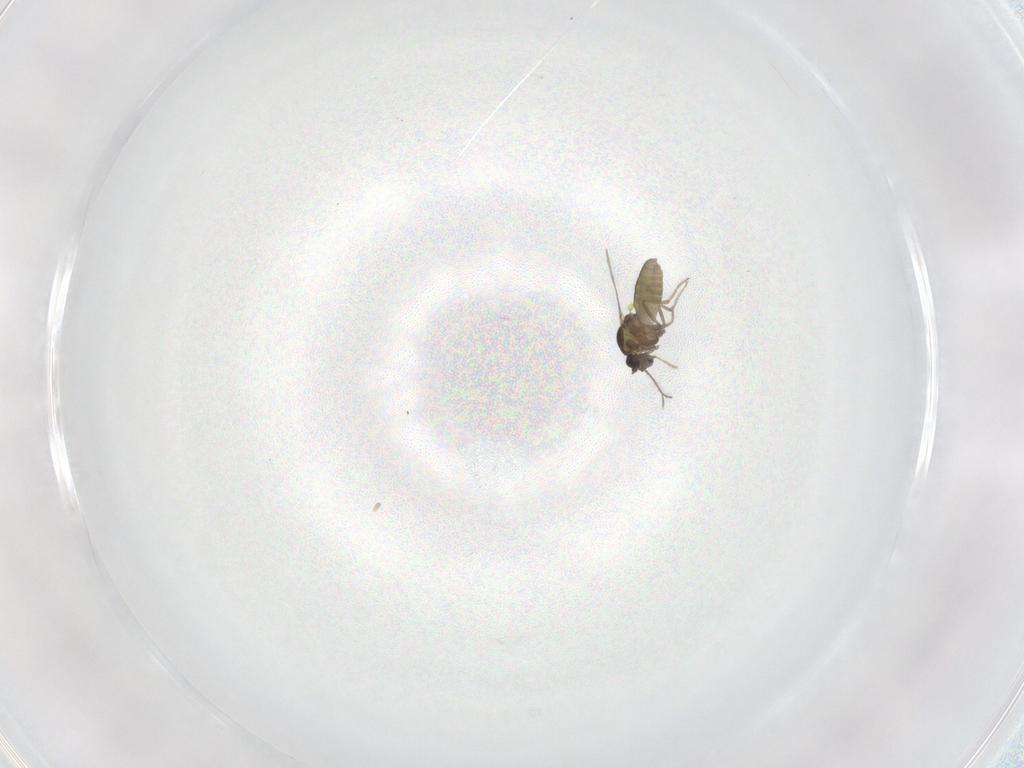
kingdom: Animalia
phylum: Arthropoda
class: Insecta
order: Diptera
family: Ceratopogonidae
